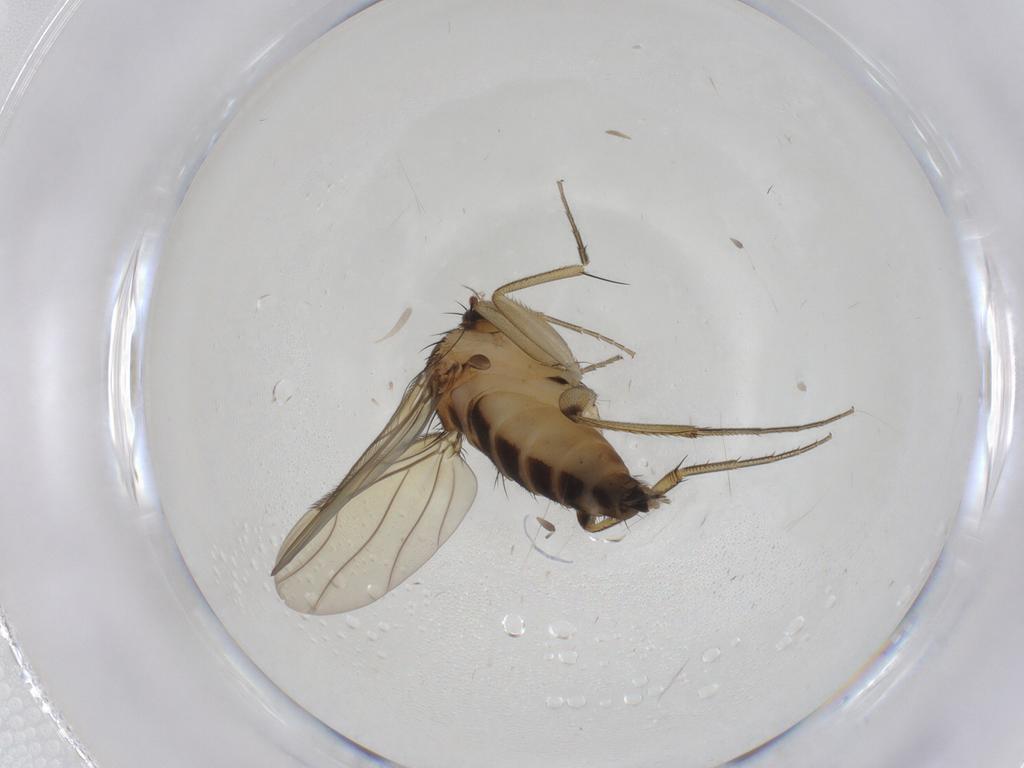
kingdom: Animalia
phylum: Arthropoda
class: Insecta
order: Diptera
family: Phoridae
